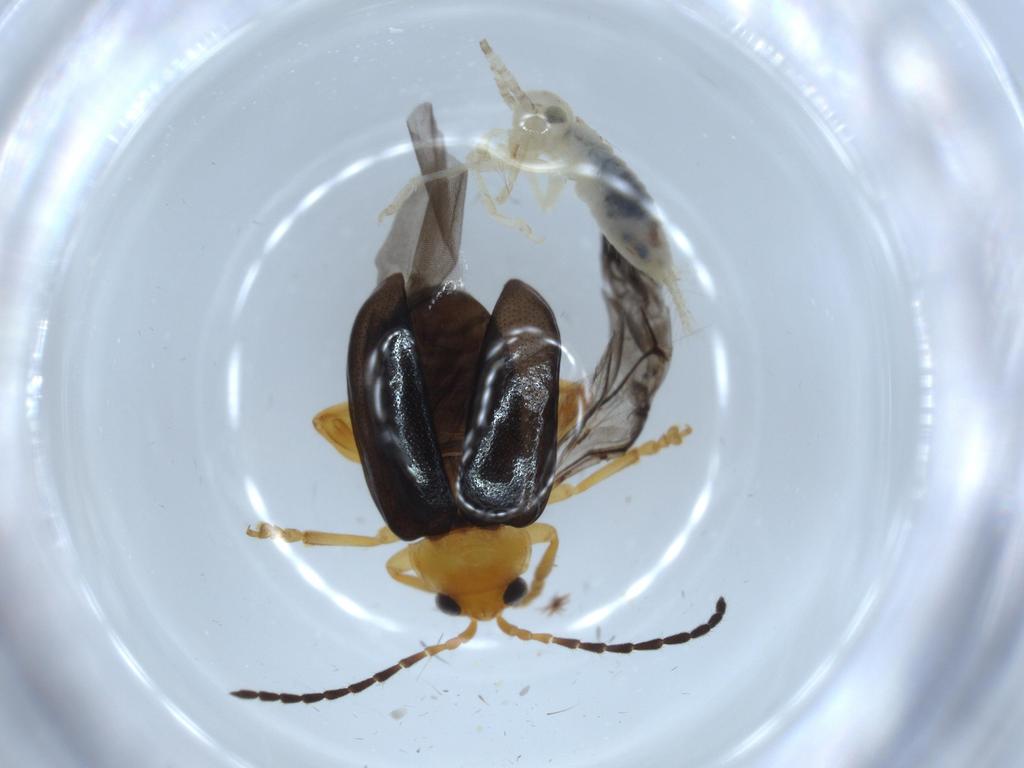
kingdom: Animalia
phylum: Arthropoda
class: Insecta
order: Coleoptera
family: Chrysomelidae
